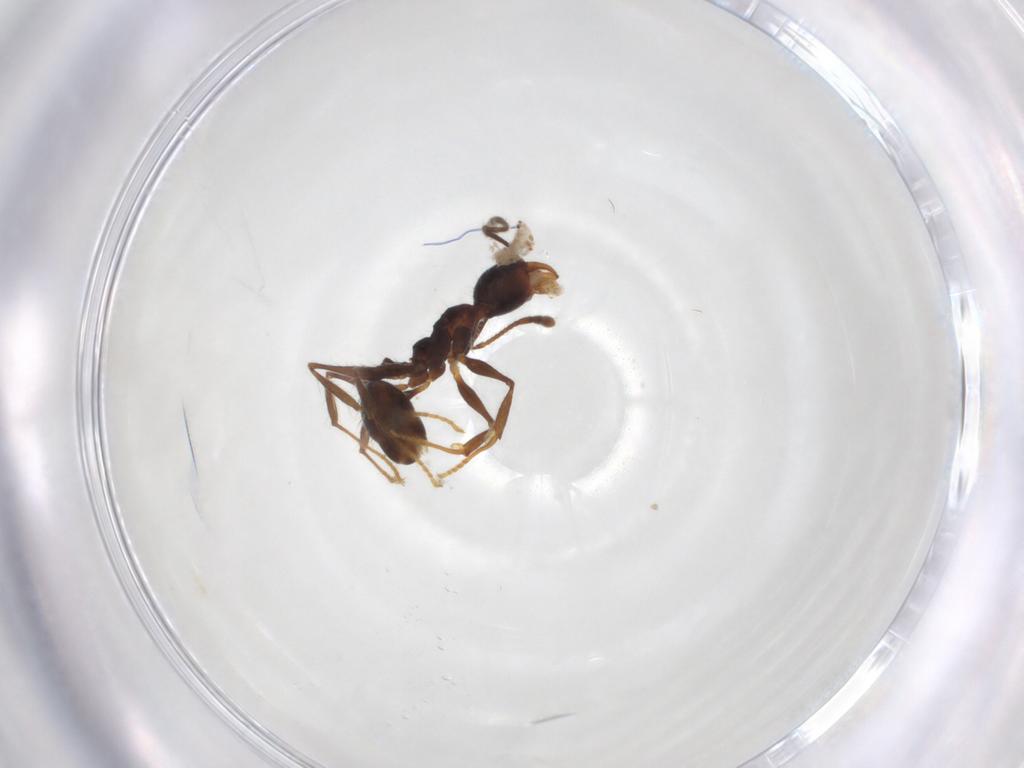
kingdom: Animalia
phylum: Arthropoda
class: Insecta
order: Hymenoptera
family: Formicidae
